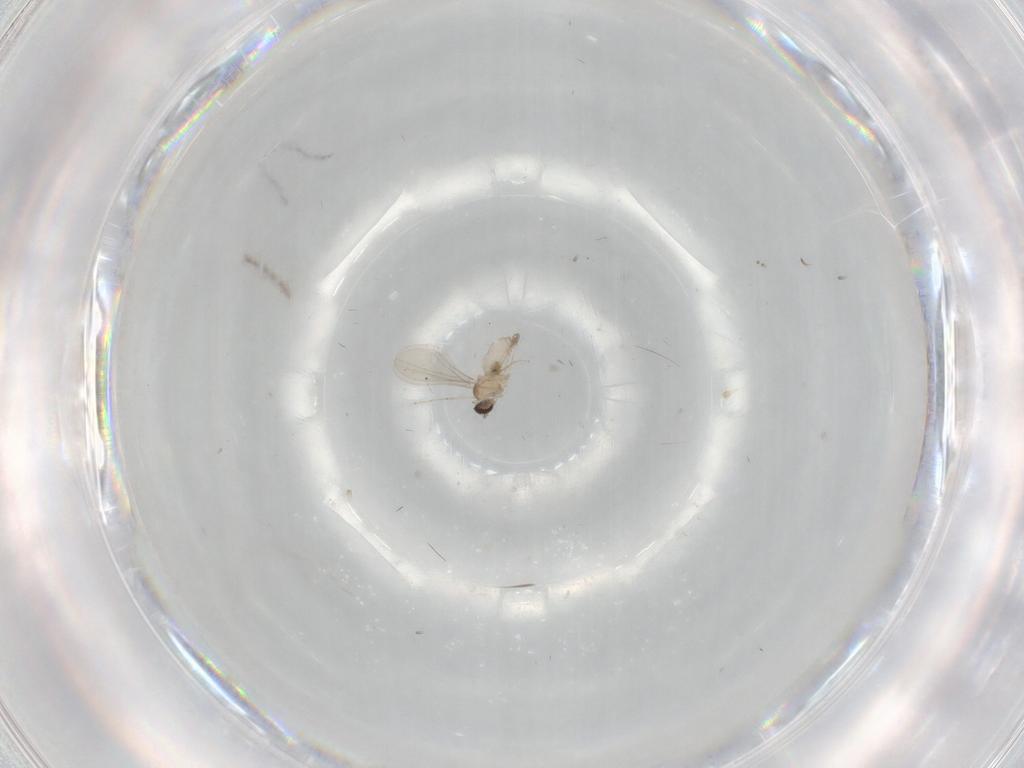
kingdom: Animalia
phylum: Arthropoda
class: Insecta
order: Diptera
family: Cecidomyiidae
